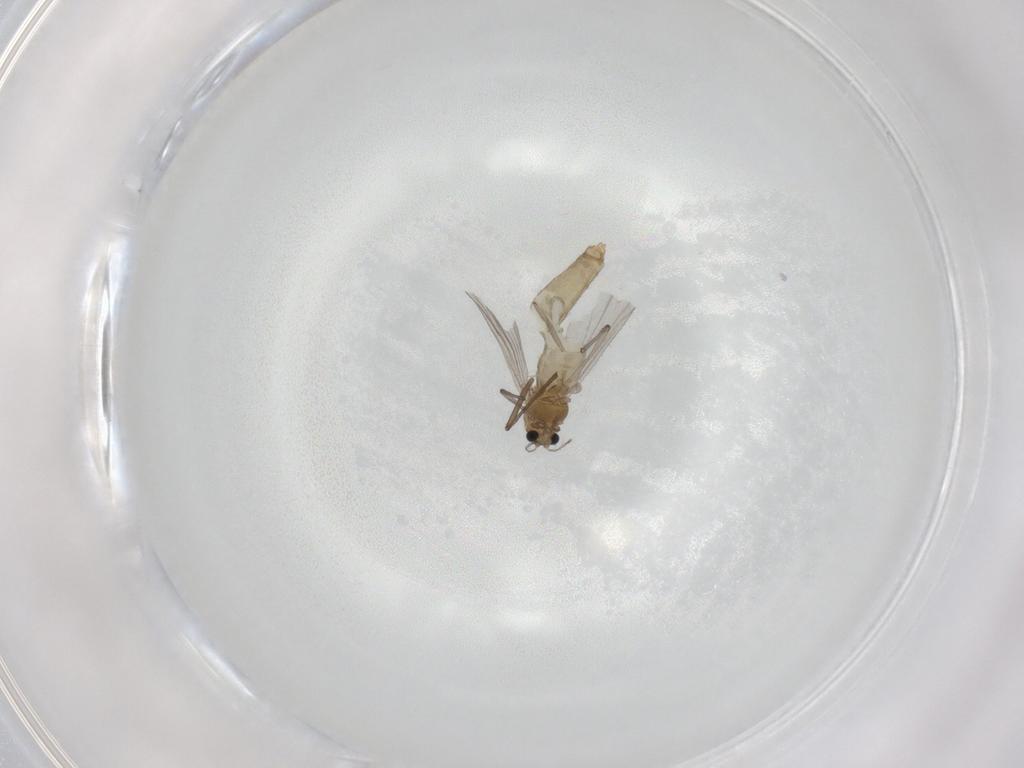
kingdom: Animalia
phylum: Arthropoda
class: Insecta
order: Diptera
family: Chironomidae
